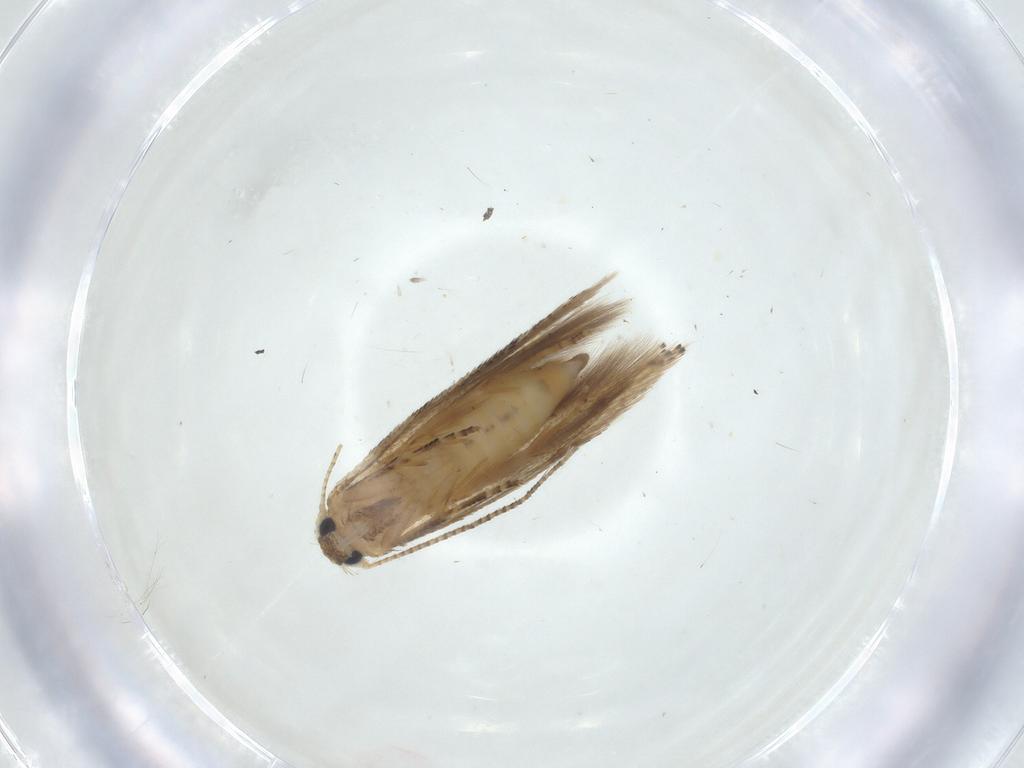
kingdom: Animalia
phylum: Arthropoda
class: Insecta
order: Lepidoptera
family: Bucculatricidae
